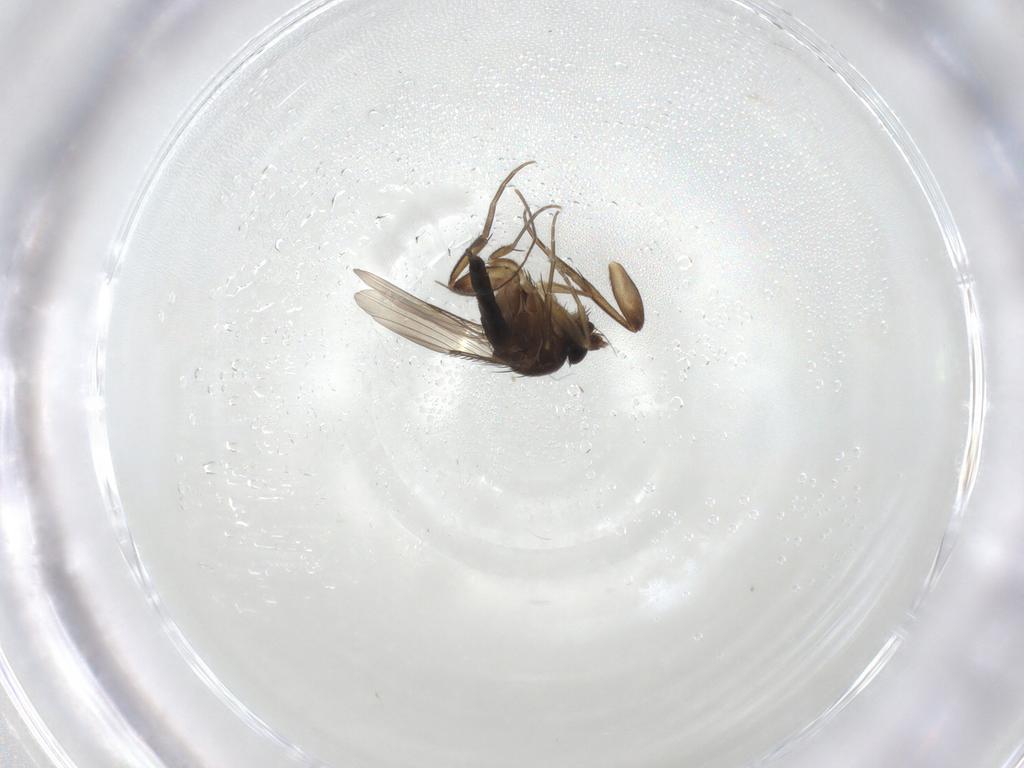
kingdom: Animalia
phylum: Arthropoda
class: Insecta
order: Diptera
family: Phoridae
